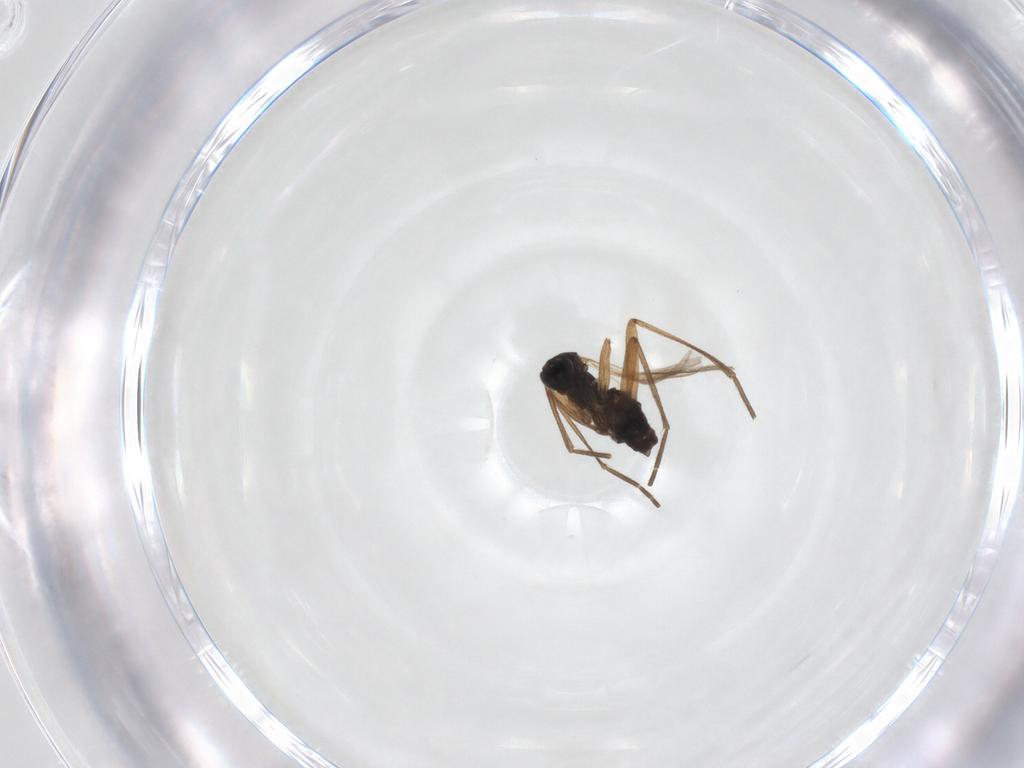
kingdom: Animalia
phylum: Arthropoda
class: Insecta
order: Diptera
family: Sciaridae
